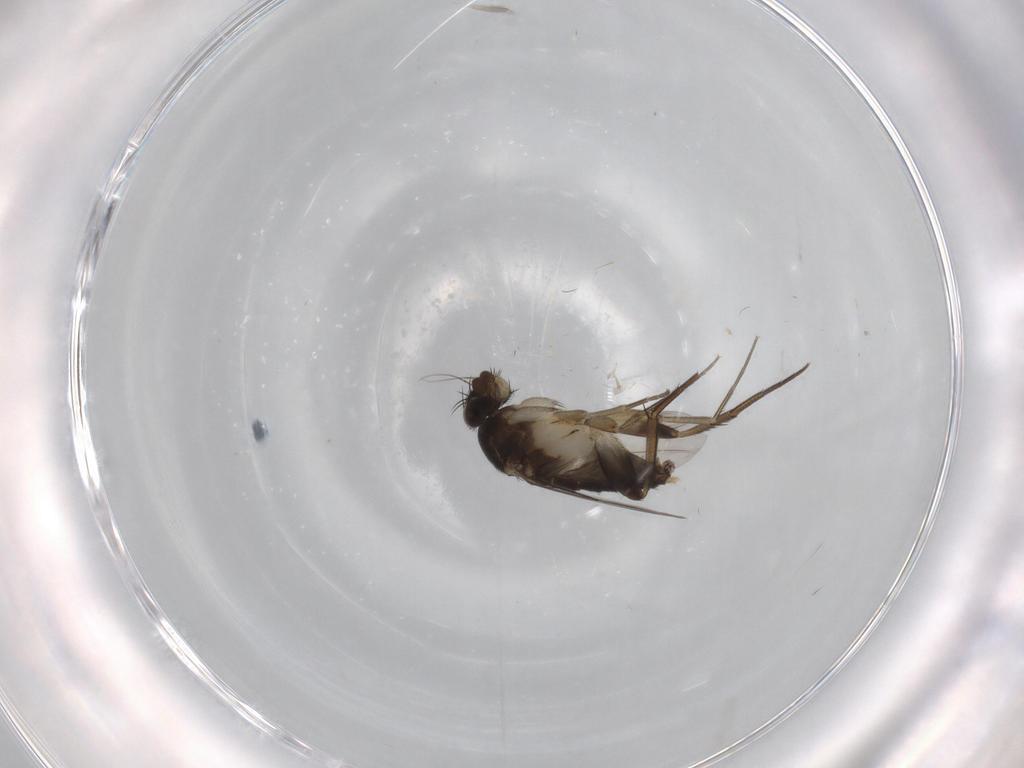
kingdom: Animalia
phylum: Arthropoda
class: Insecta
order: Diptera
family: Phoridae
